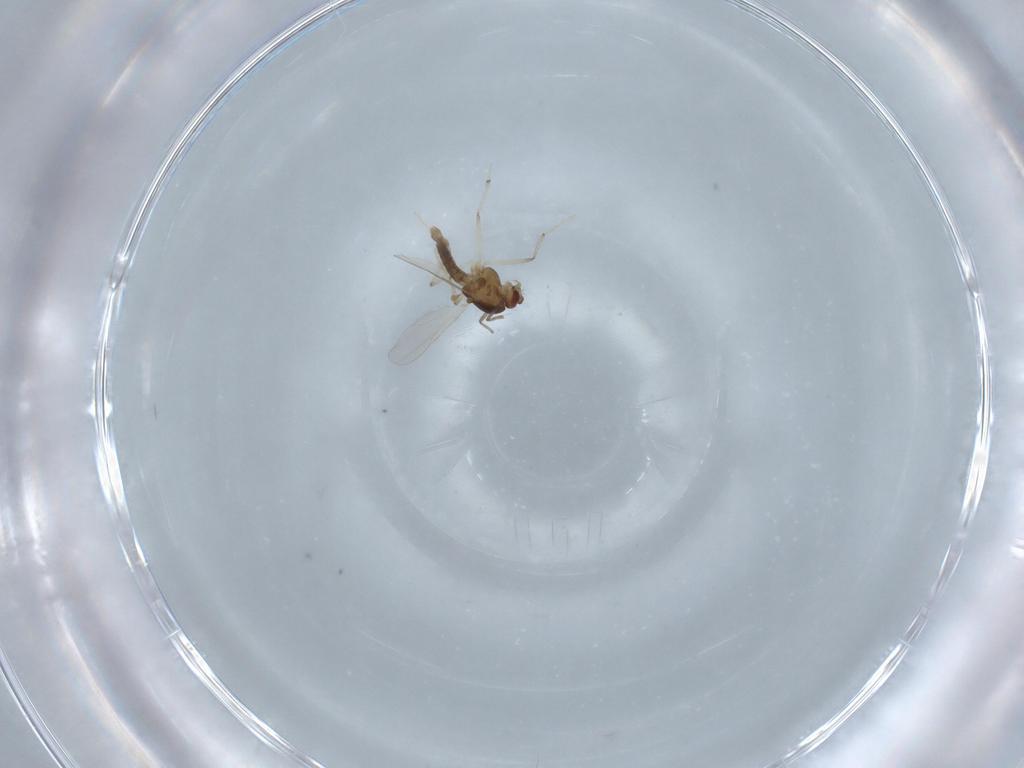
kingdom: Animalia
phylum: Arthropoda
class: Insecta
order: Diptera
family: Chironomidae
